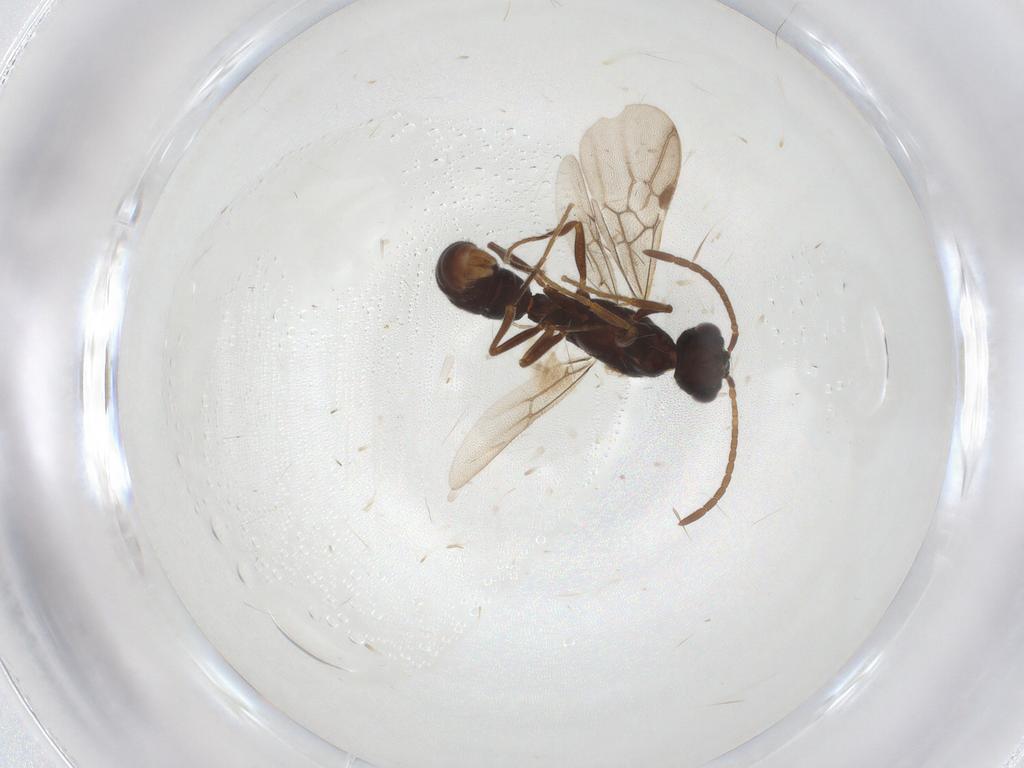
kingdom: Animalia
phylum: Arthropoda
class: Insecta
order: Hymenoptera
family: Formicidae
